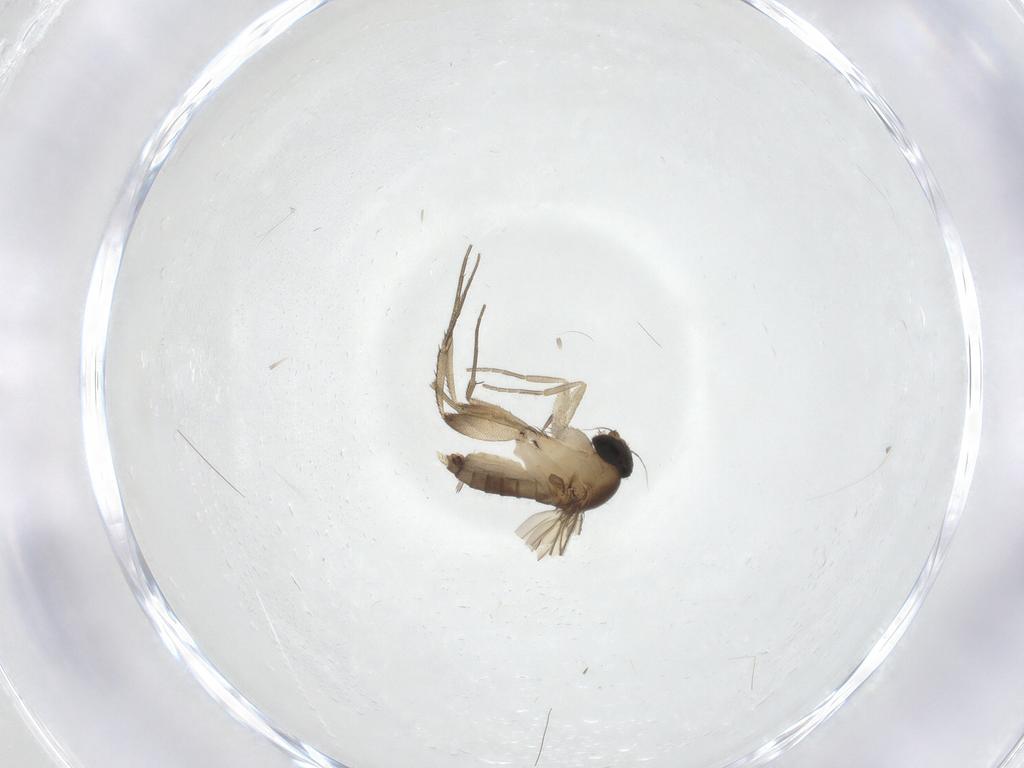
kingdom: Animalia
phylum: Arthropoda
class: Insecta
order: Diptera
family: Phoridae
